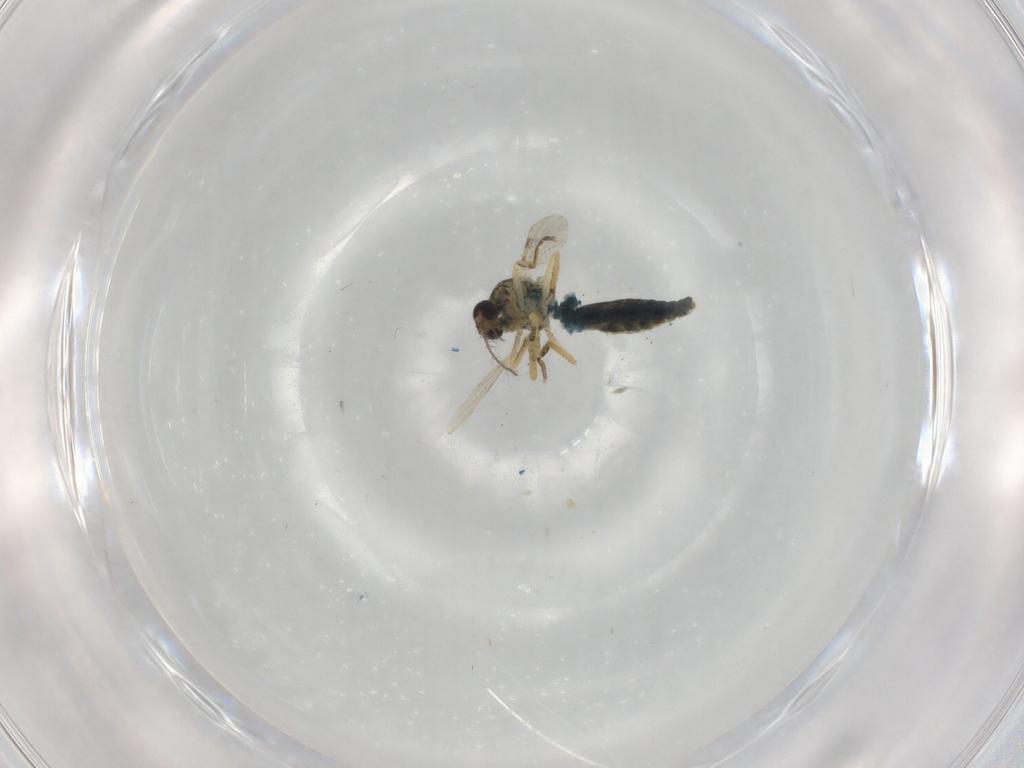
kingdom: Animalia
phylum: Arthropoda
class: Insecta
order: Diptera
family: Ceratopogonidae
